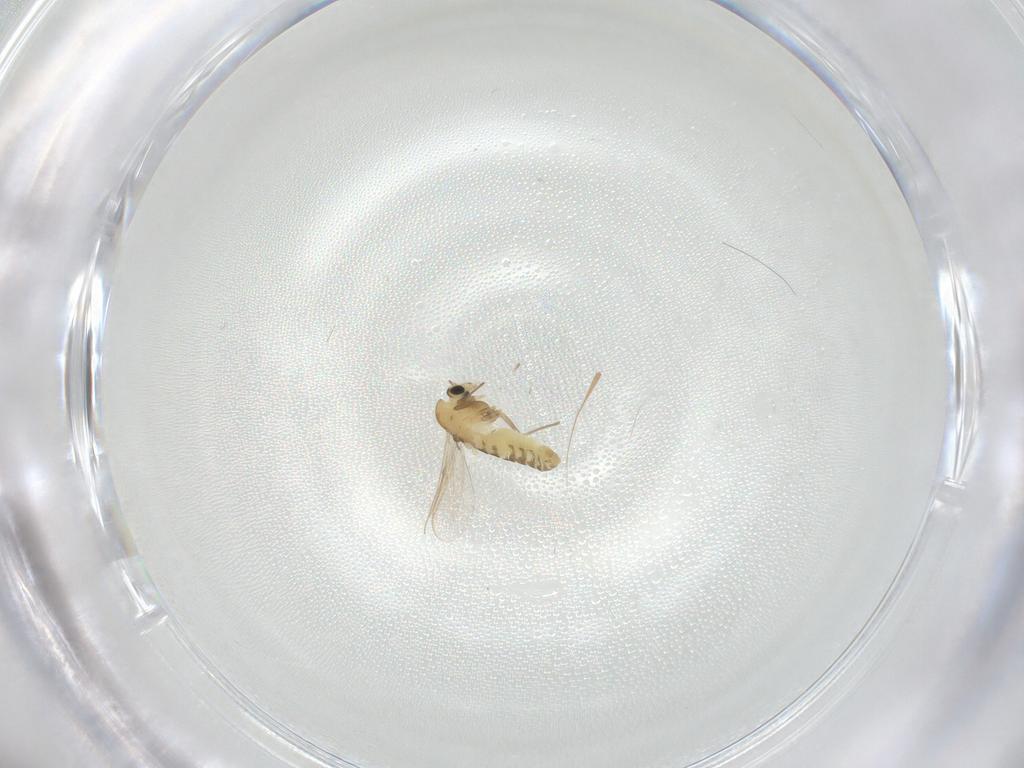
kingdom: Animalia
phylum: Arthropoda
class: Insecta
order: Diptera
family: Chironomidae
